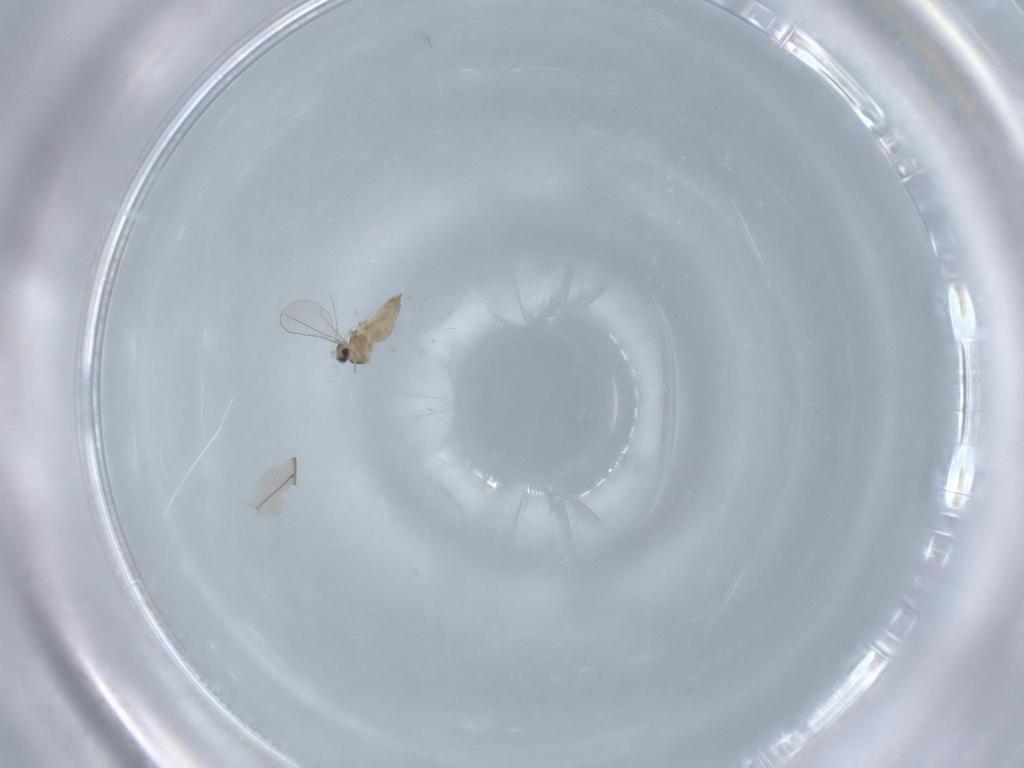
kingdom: Animalia
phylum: Arthropoda
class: Insecta
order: Diptera
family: Cecidomyiidae
